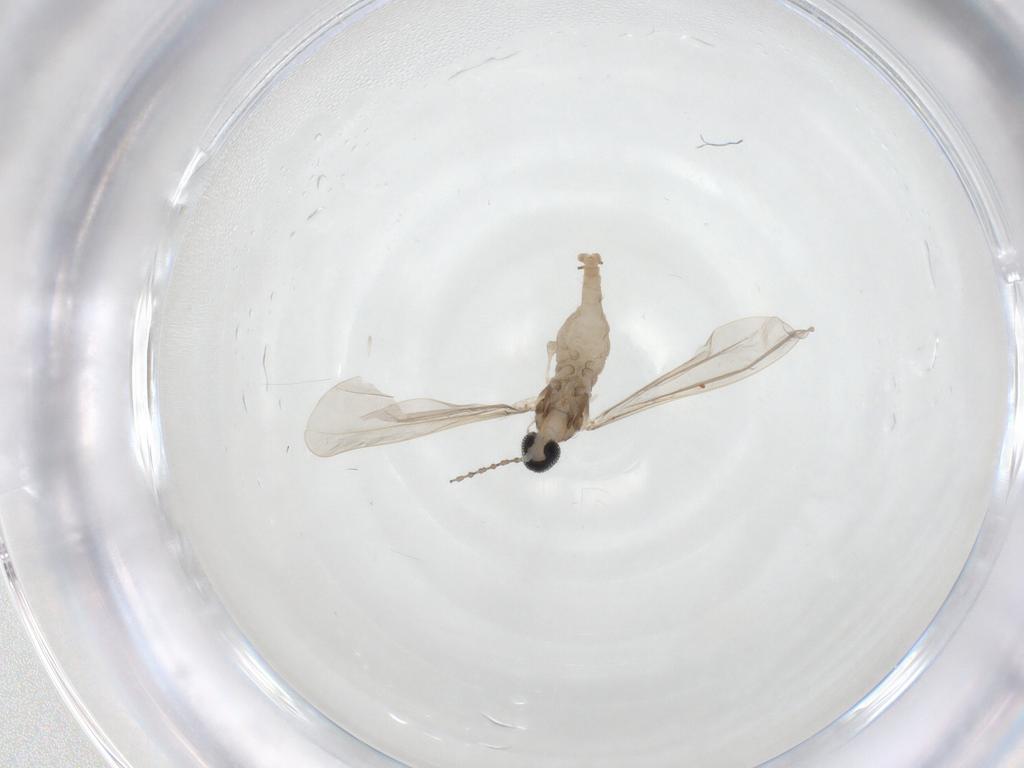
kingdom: Animalia
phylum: Arthropoda
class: Insecta
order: Diptera
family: Cecidomyiidae
